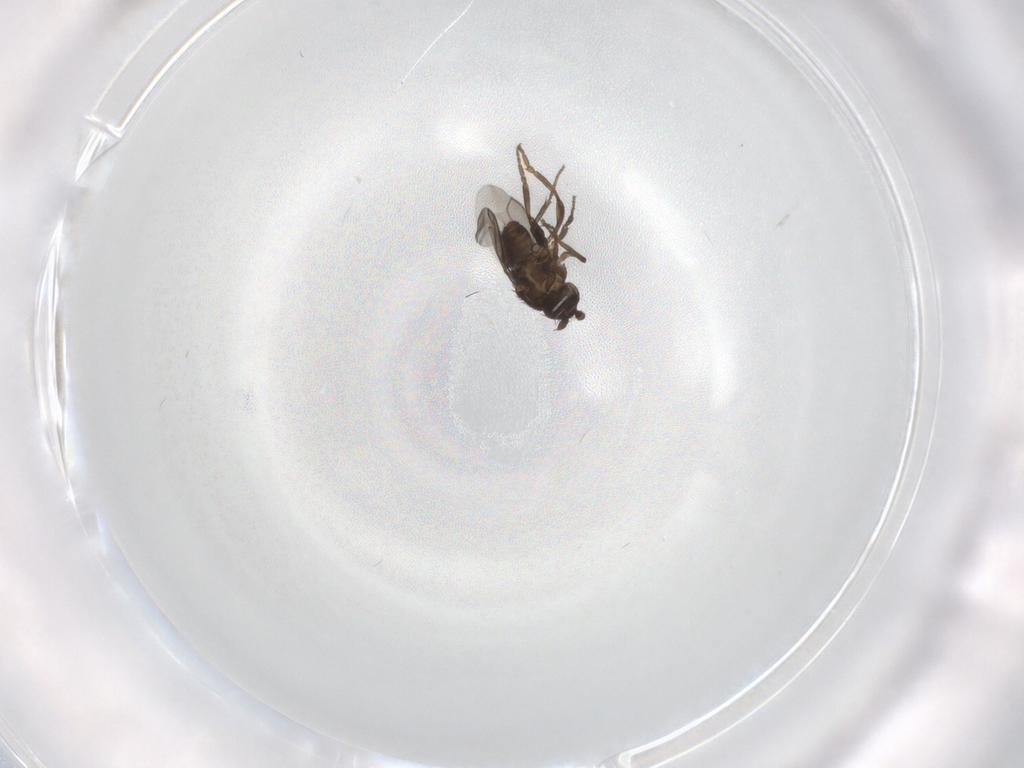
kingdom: Animalia
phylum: Arthropoda
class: Insecta
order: Diptera
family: Sphaeroceridae
